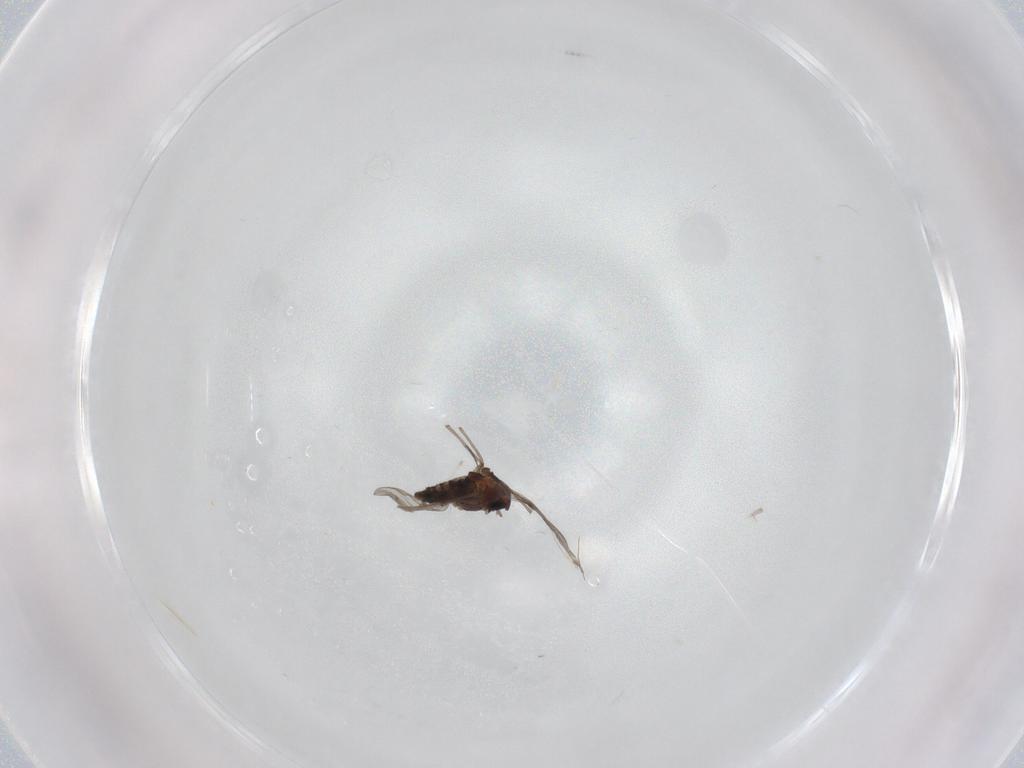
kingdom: Animalia
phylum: Arthropoda
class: Insecta
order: Diptera
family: Chironomidae
